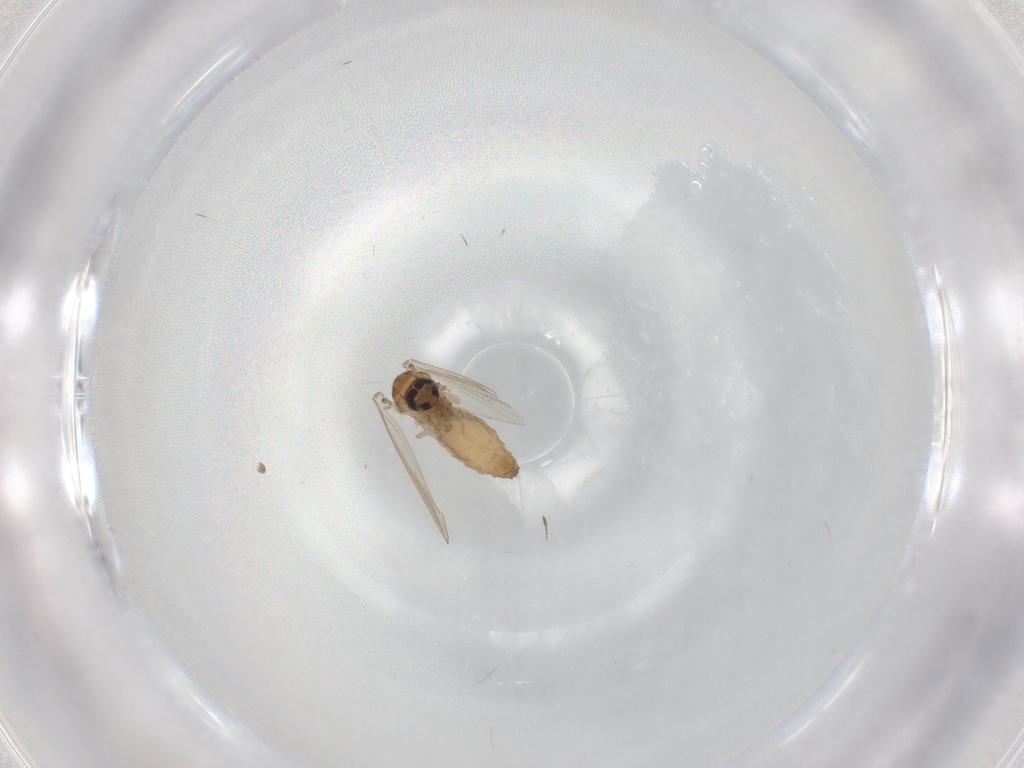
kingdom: Animalia
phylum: Arthropoda
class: Insecta
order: Diptera
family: Psychodidae
